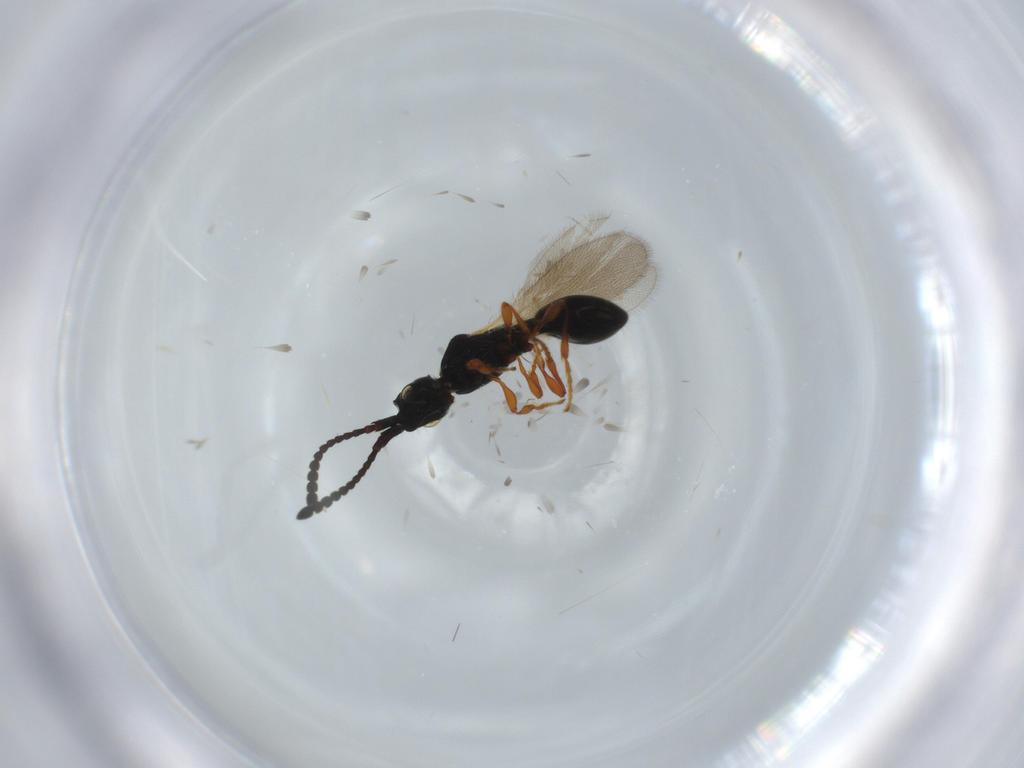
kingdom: Animalia
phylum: Arthropoda
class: Insecta
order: Hymenoptera
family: Diapriidae
